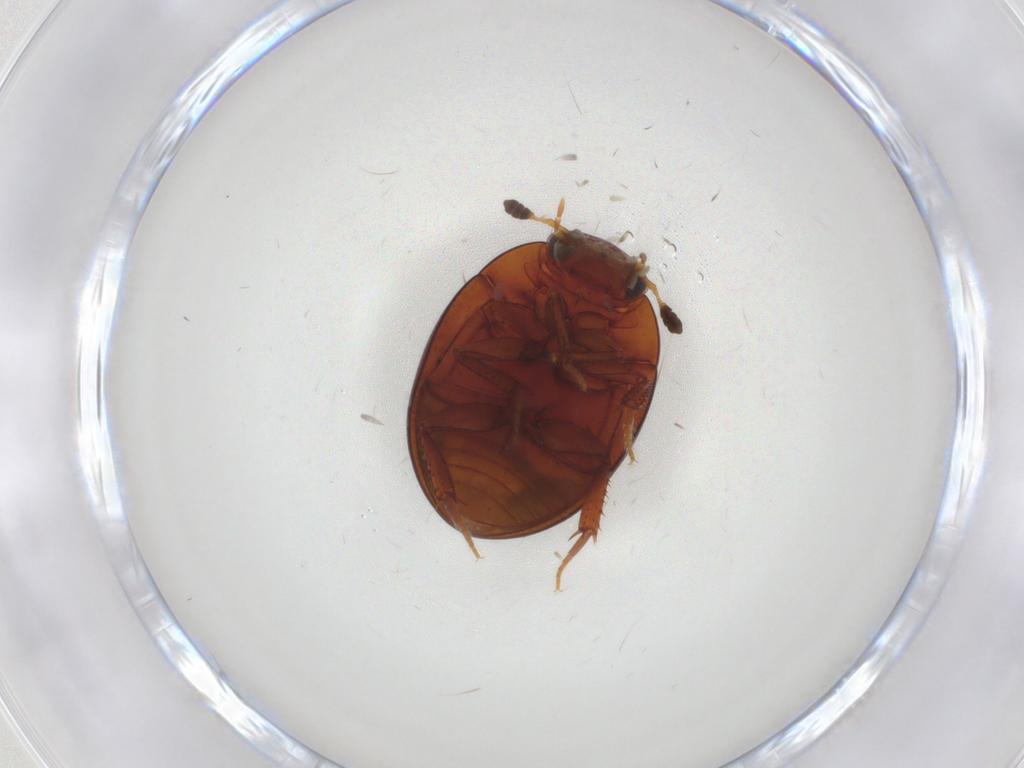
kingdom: Animalia
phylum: Arthropoda
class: Insecta
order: Coleoptera
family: Hydrophilidae
